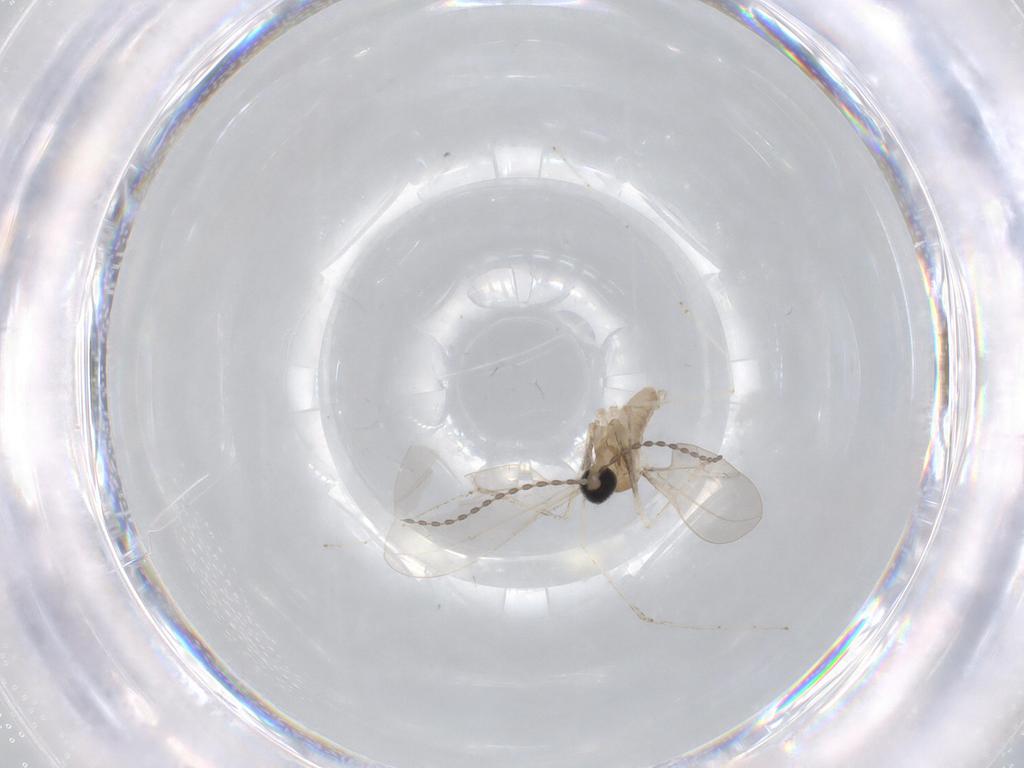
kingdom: Animalia
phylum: Arthropoda
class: Insecta
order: Diptera
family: Cecidomyiidae
